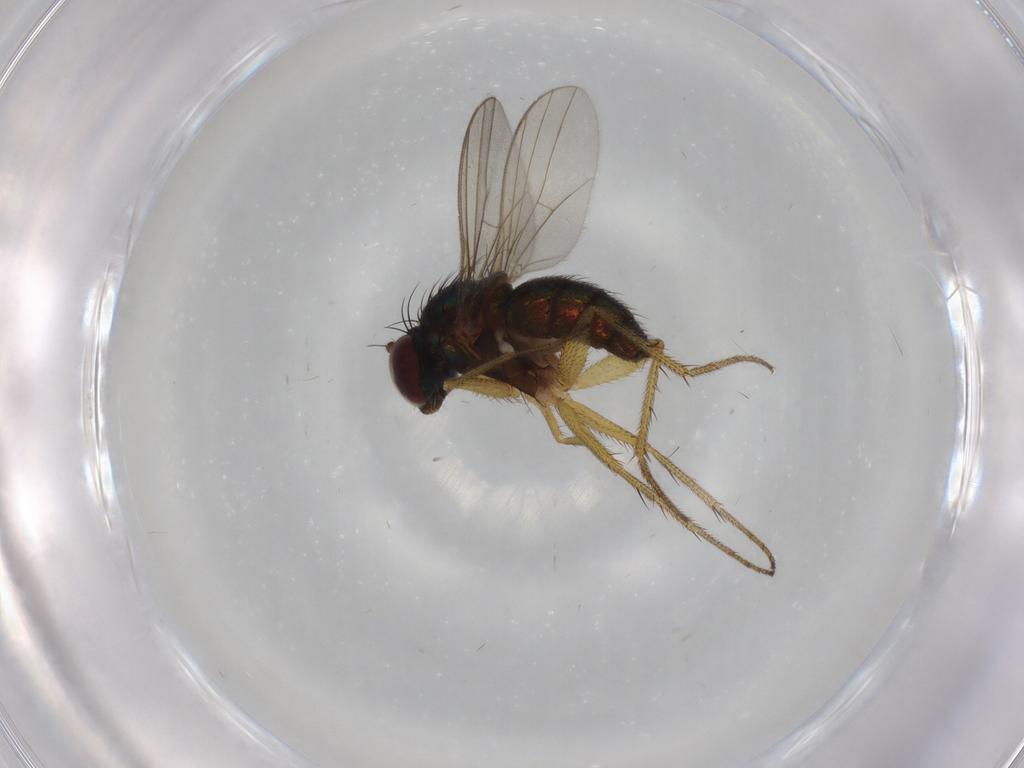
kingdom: Animalia
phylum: Arthropoda
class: Insecta
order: Diptera
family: Dolichopodidae
